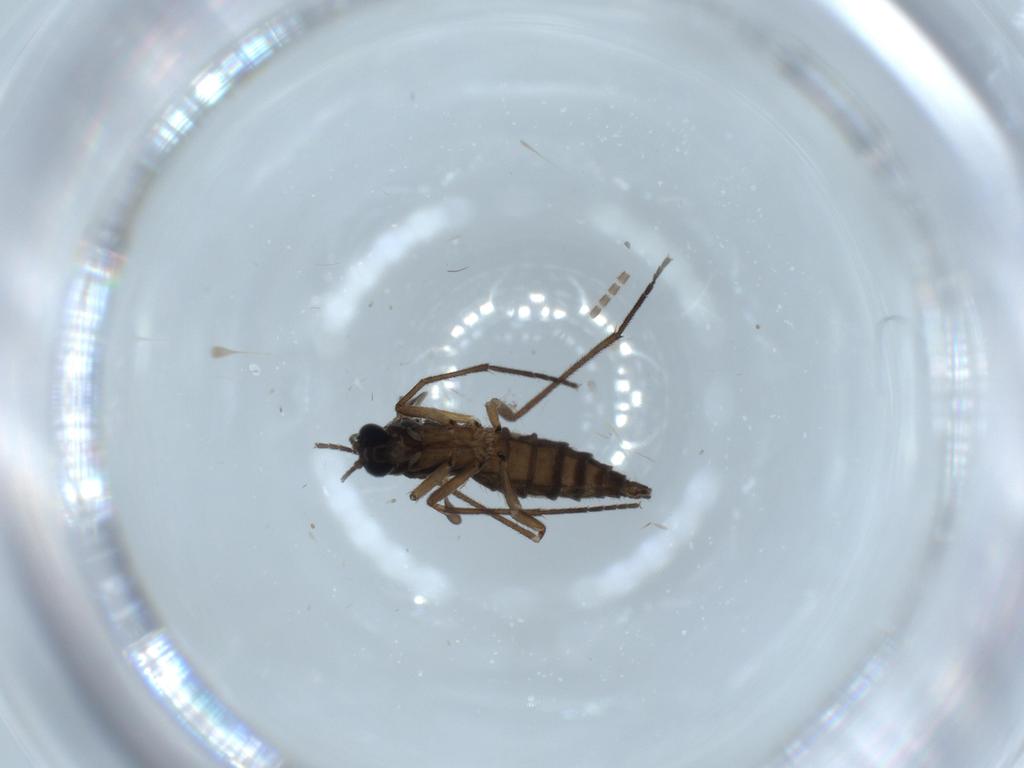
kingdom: Animalia
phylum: Arthropoda
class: Insecta
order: Diptera
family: Sciaridae
